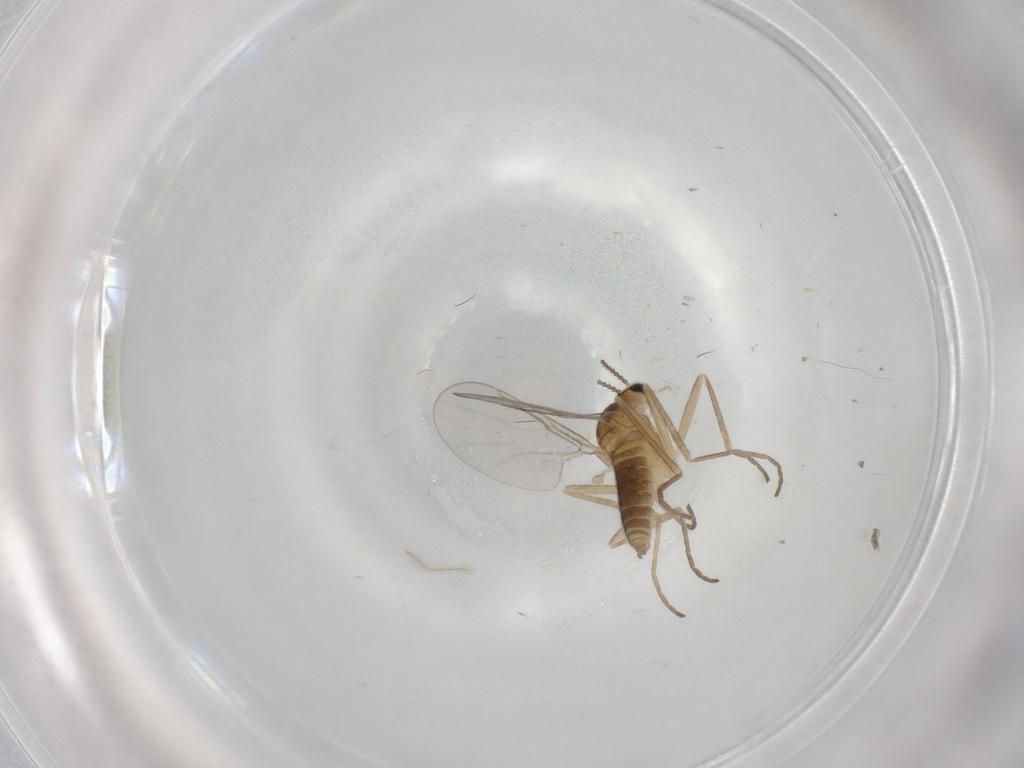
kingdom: Animalia
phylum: Arthropoda
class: Insecta
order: Diptera
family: Cecidomyiidae
